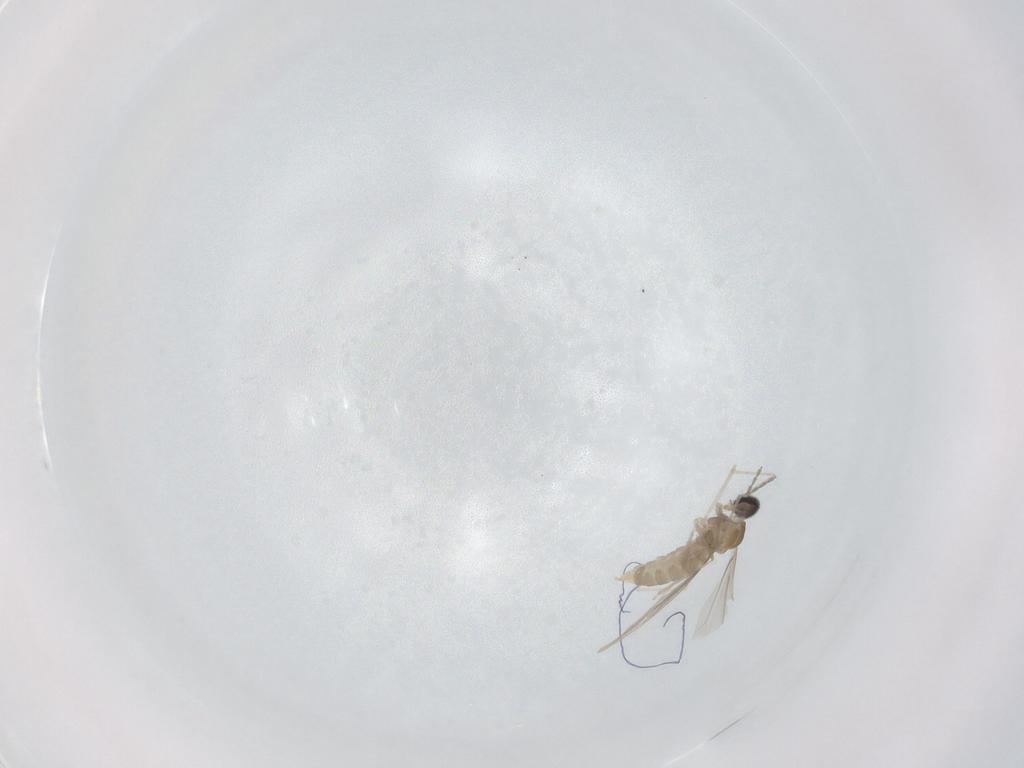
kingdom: Animalia
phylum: Arthropoda
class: Insecta
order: Diptera
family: Cecidomyiidae
